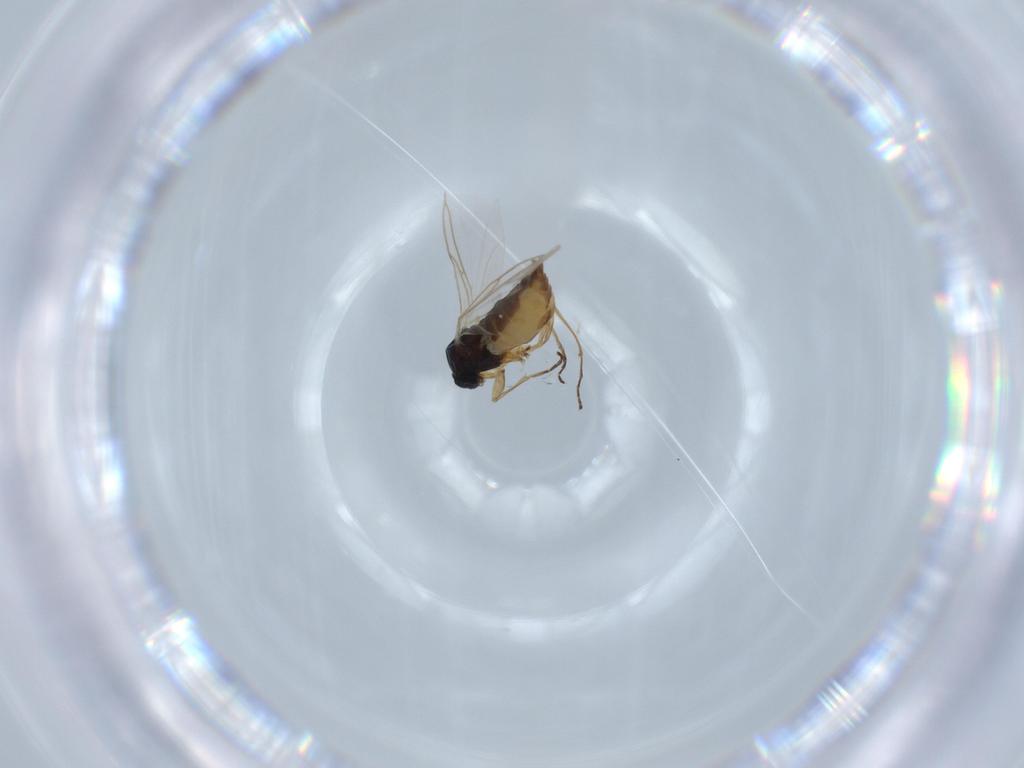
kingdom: Animalia
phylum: Arthropoda
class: Insecta
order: Diptera
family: Sciaridae
